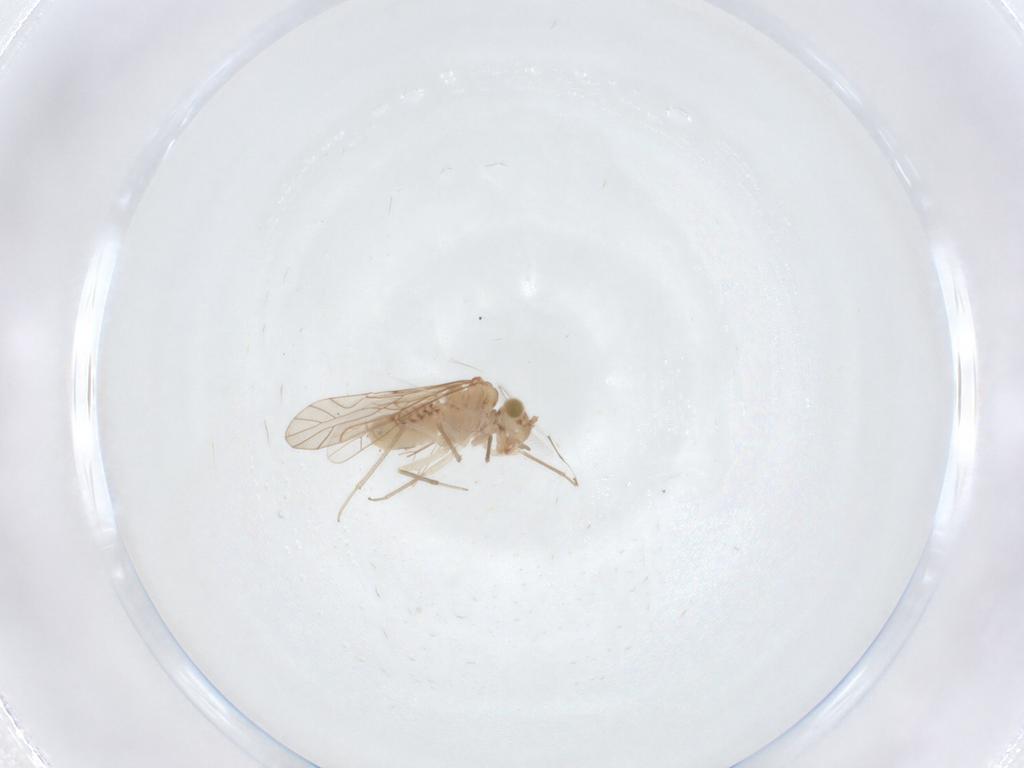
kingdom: Animalia
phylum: Arthropoda
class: Insecta
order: Psocodea
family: Lachesillidae
